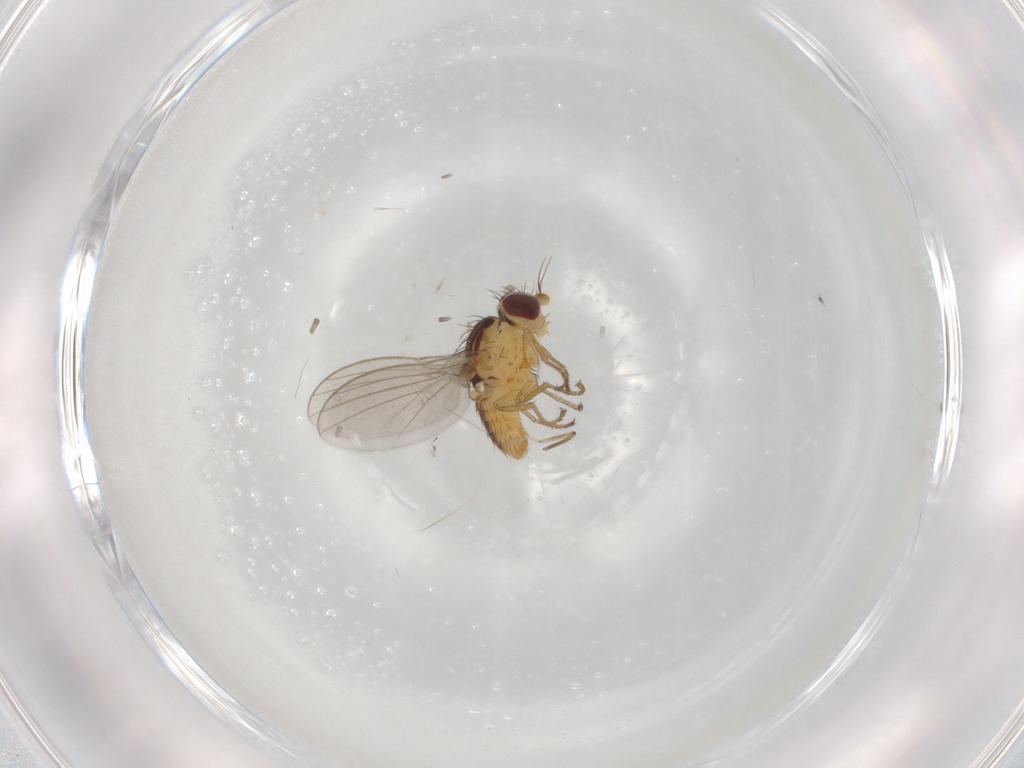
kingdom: Animalia
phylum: Arthropoda
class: Insecta
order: Diptera
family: Agromyzidae
